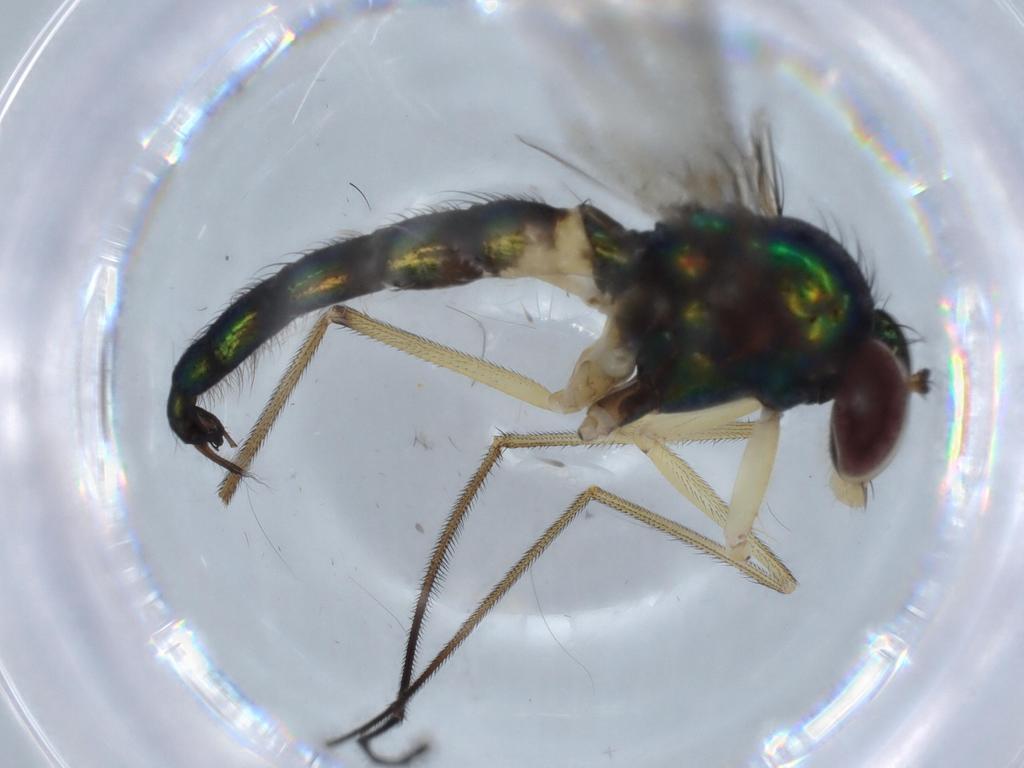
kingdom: Animalia
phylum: Arthropoda
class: Insecta
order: Diptera
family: Dolichopodidae
